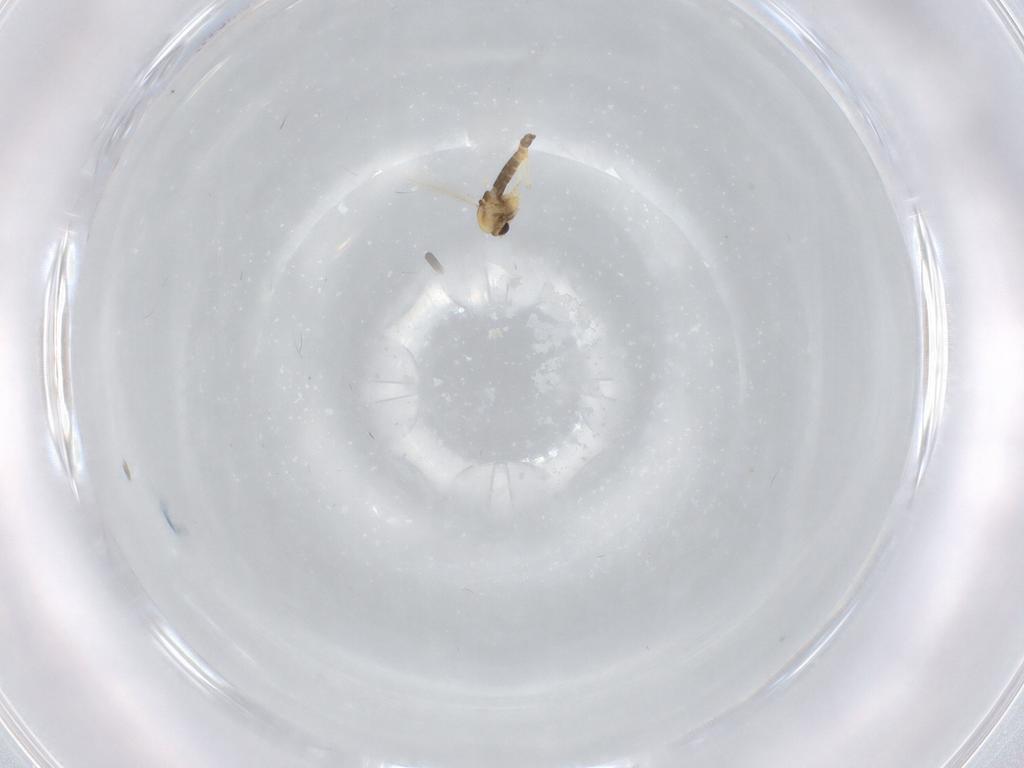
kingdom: Animalia
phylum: Arthropoda
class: Insecta
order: Diptera
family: Chironomidae
